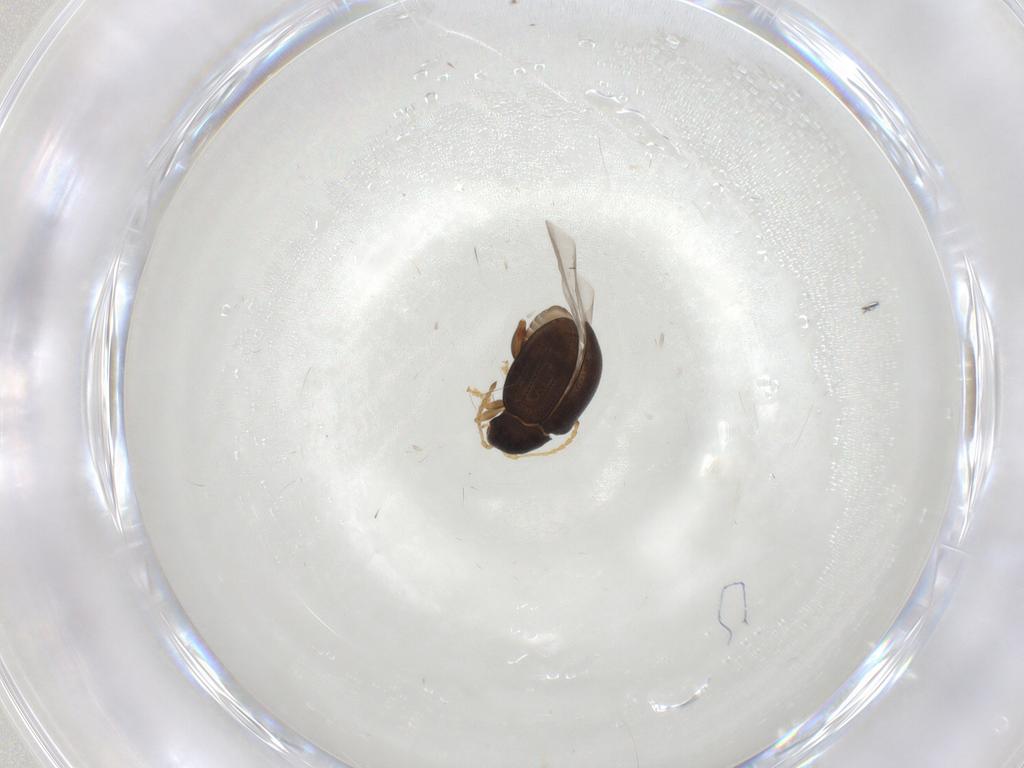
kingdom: Animalia
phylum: Arthropoda
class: Insecta
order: Coleoptera
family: Chrysomelidae
